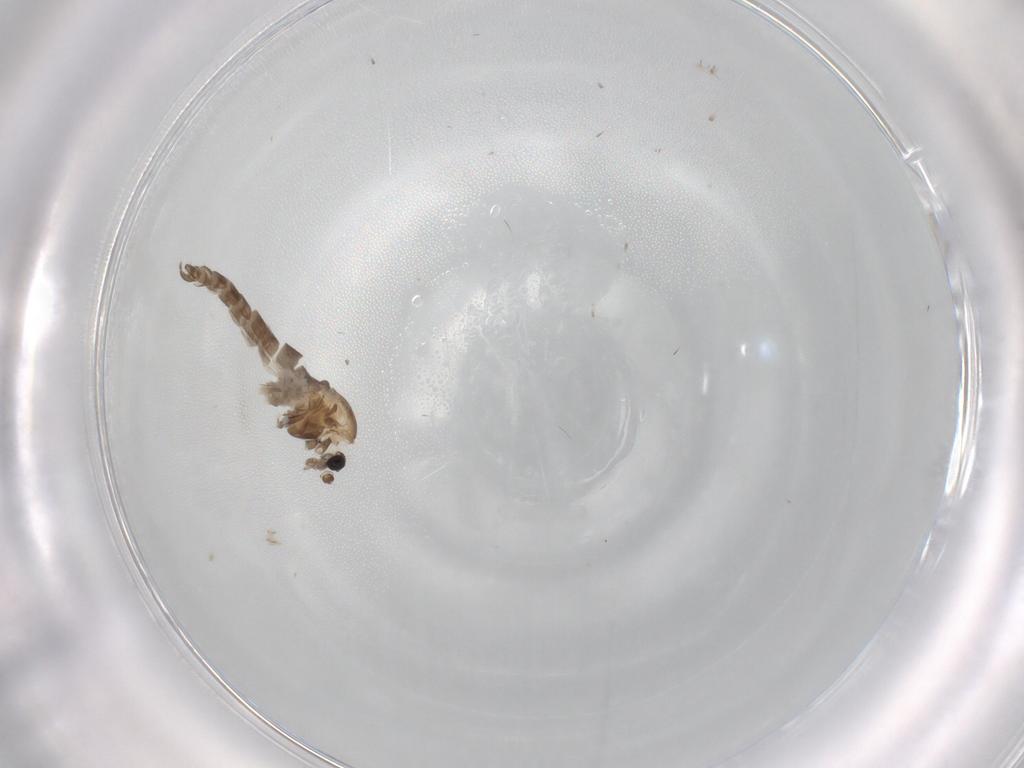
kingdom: Animalia
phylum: Arthropoda
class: Insecta
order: Diptera
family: Chironomidae
